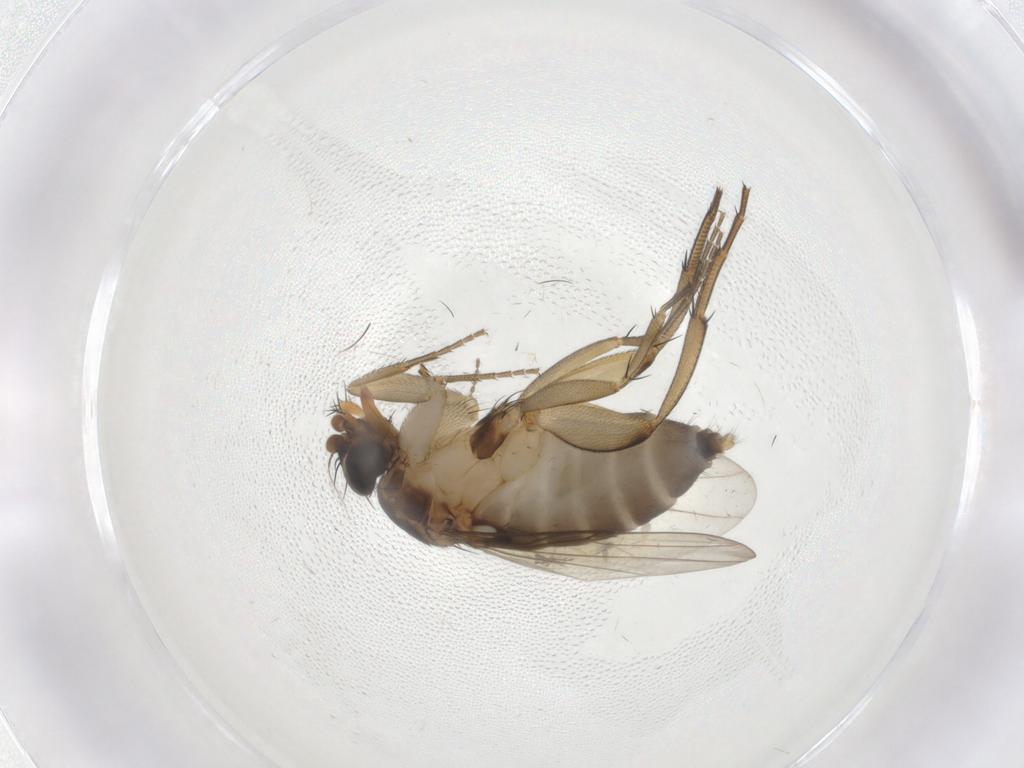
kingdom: Animalia
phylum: Arthropoda
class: Insecta
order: Diptera
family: Phoridae
